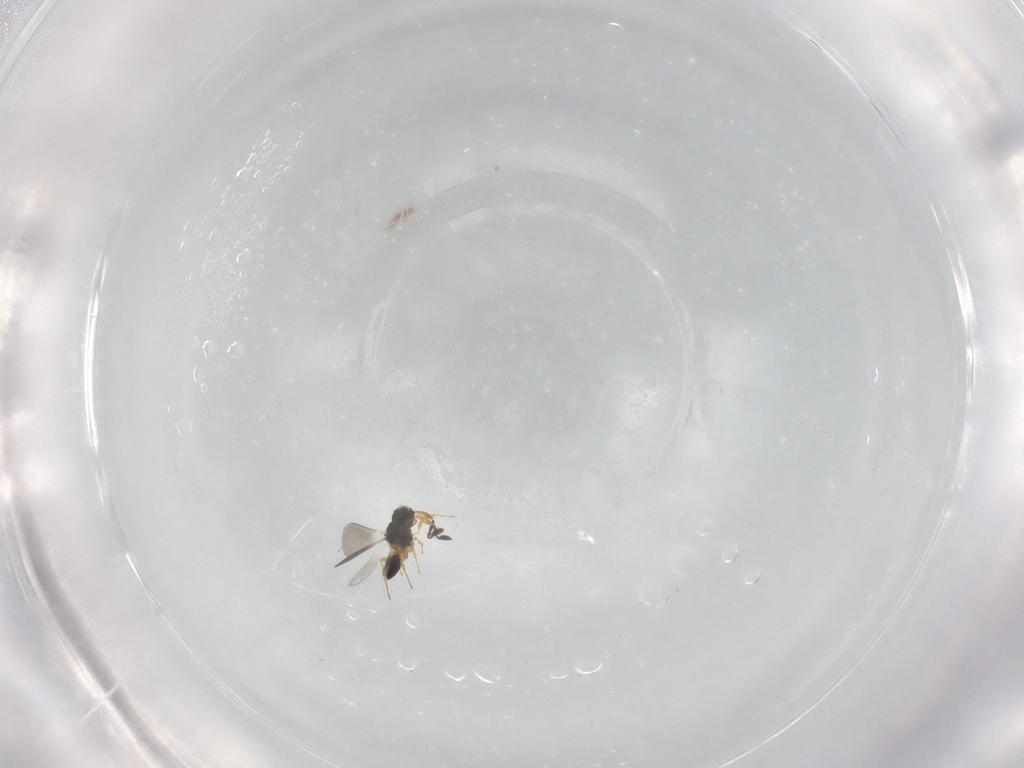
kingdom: Animalia
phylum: Arthropoda
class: Insecta
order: Hymenoptera
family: Platygastridae
